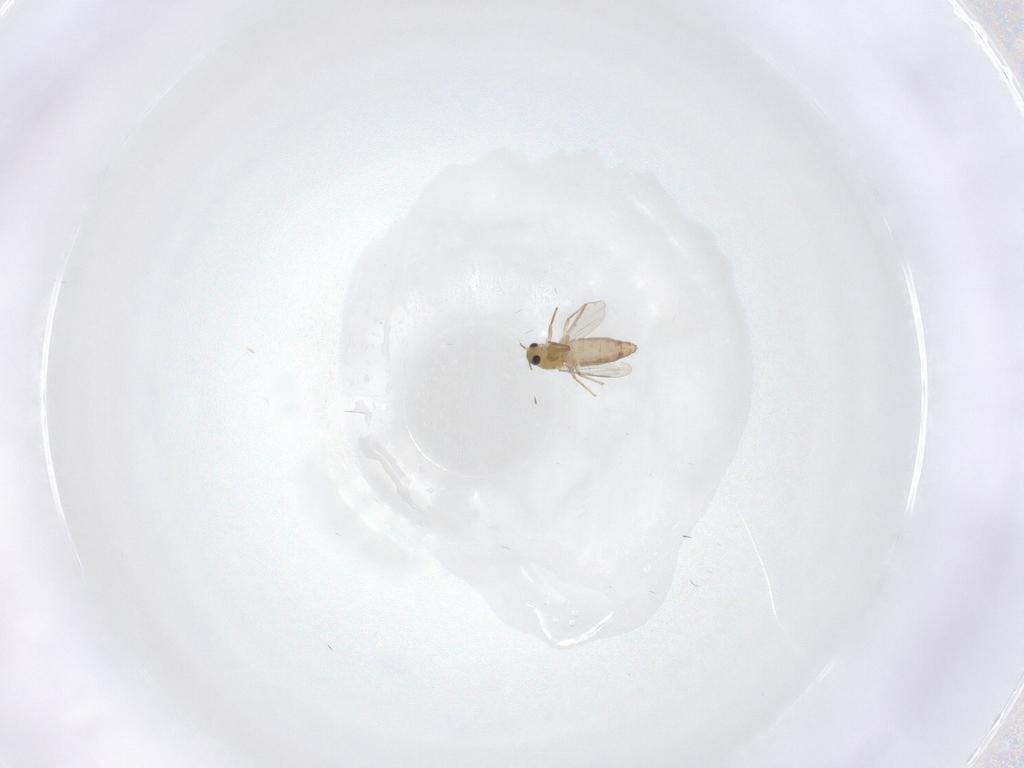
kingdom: Animalia
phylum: Arthropoda
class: Insecta
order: Diptera
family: Chironomidae
